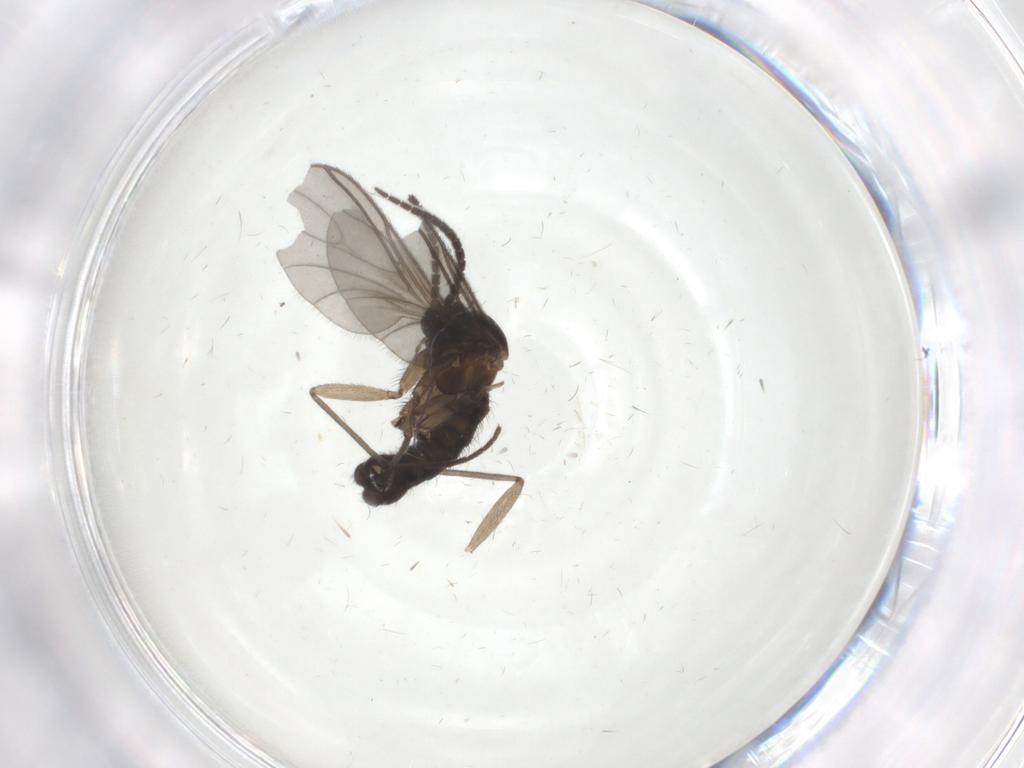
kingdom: Animalia
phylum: Arthropoda
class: Insecta
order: Diptera
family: Sciaridae
